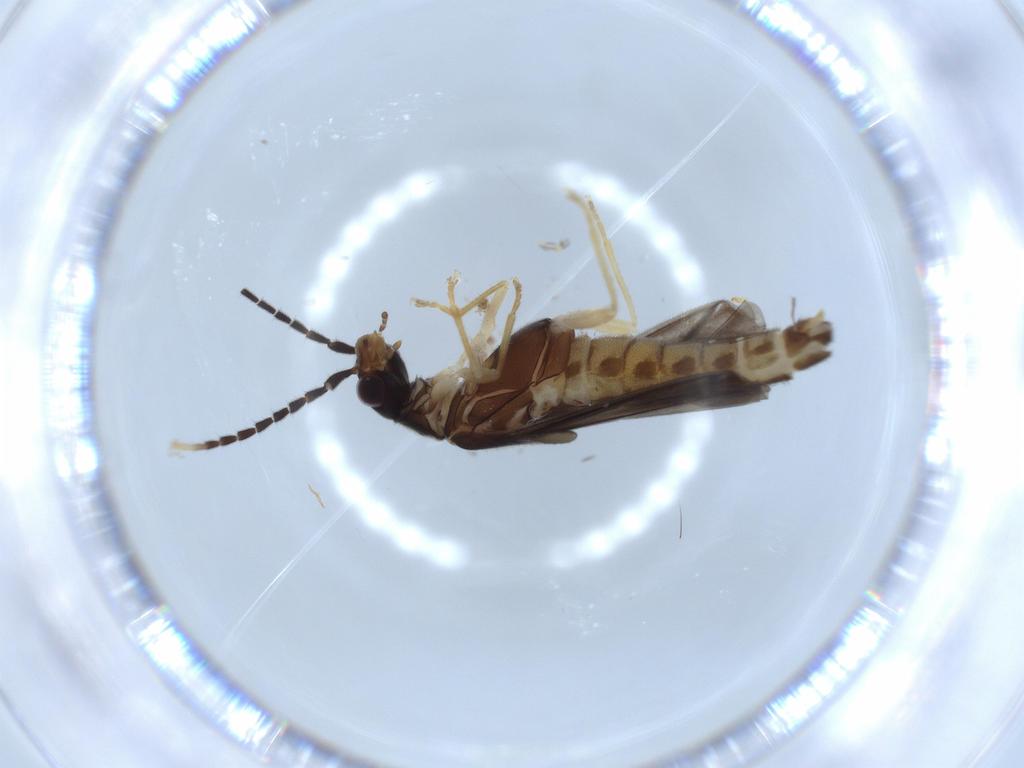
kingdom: Animalia
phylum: Arthropoda
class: Insecta
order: Coleoptera
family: Cantharidae
